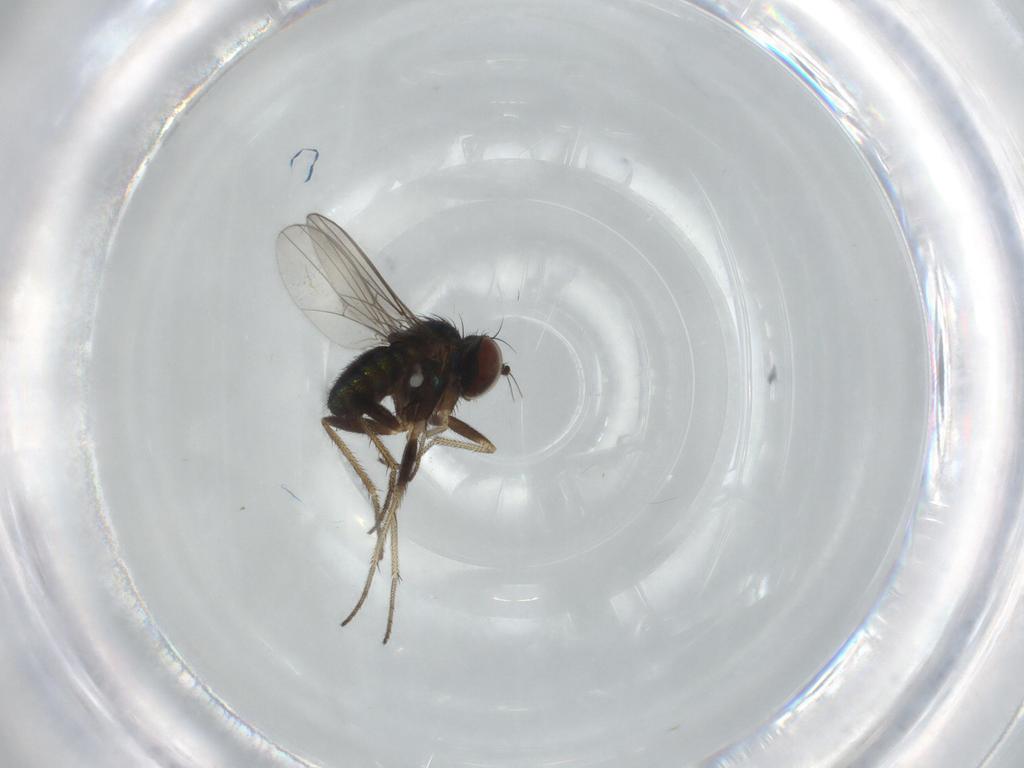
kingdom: Animalia
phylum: Arthropoda
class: Insecta
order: Diptera
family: Dolichopodidae
